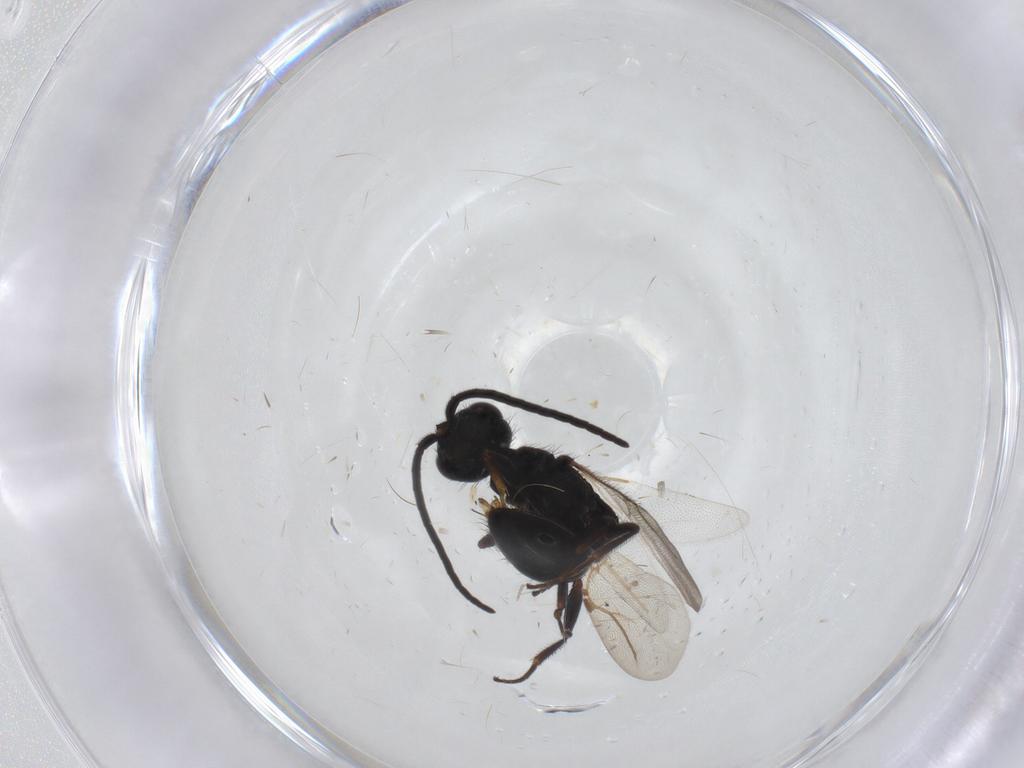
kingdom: Animalia
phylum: Arthropoda
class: Insecta
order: Hymenoptera
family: Bethylidae
